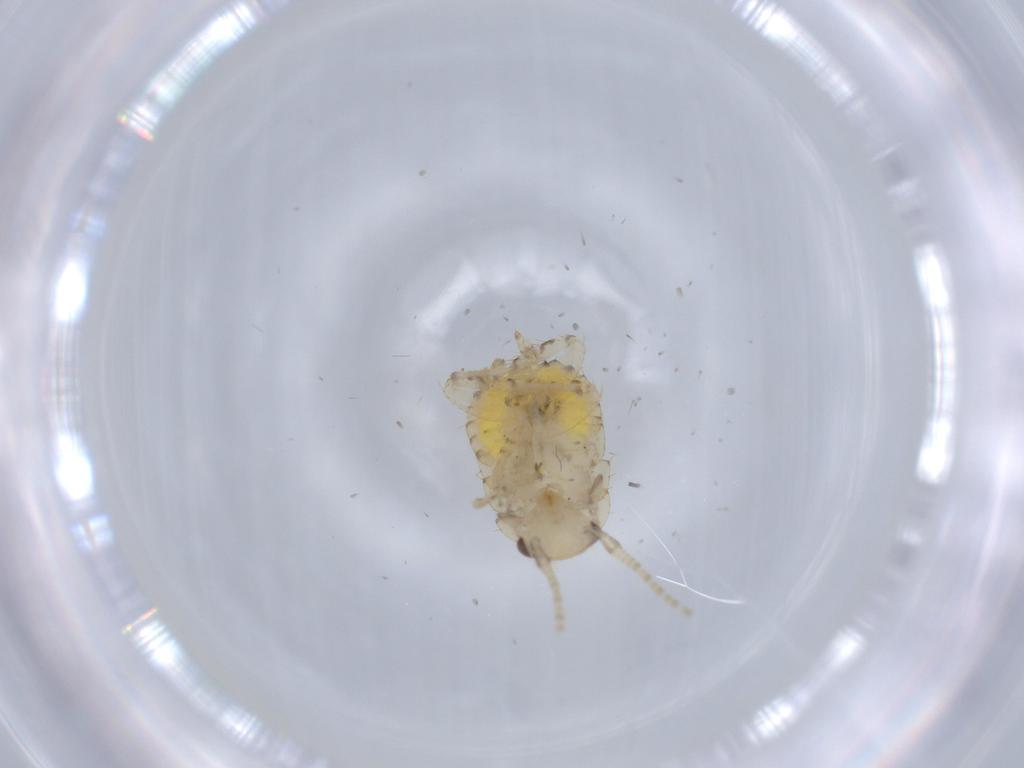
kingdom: Animalia
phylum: Arthropoda
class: Insecta
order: Blattodea
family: Ectobiidae
